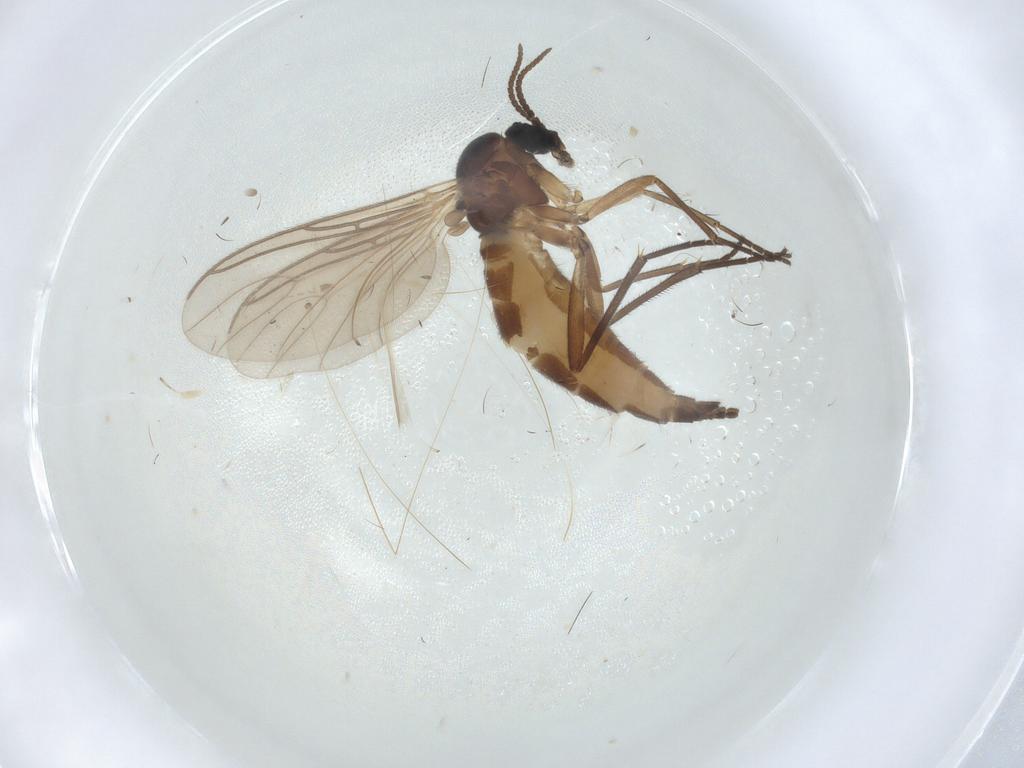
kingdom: Animalia
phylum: Arthropoda
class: Insecta
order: Diptera
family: Sciaridae
